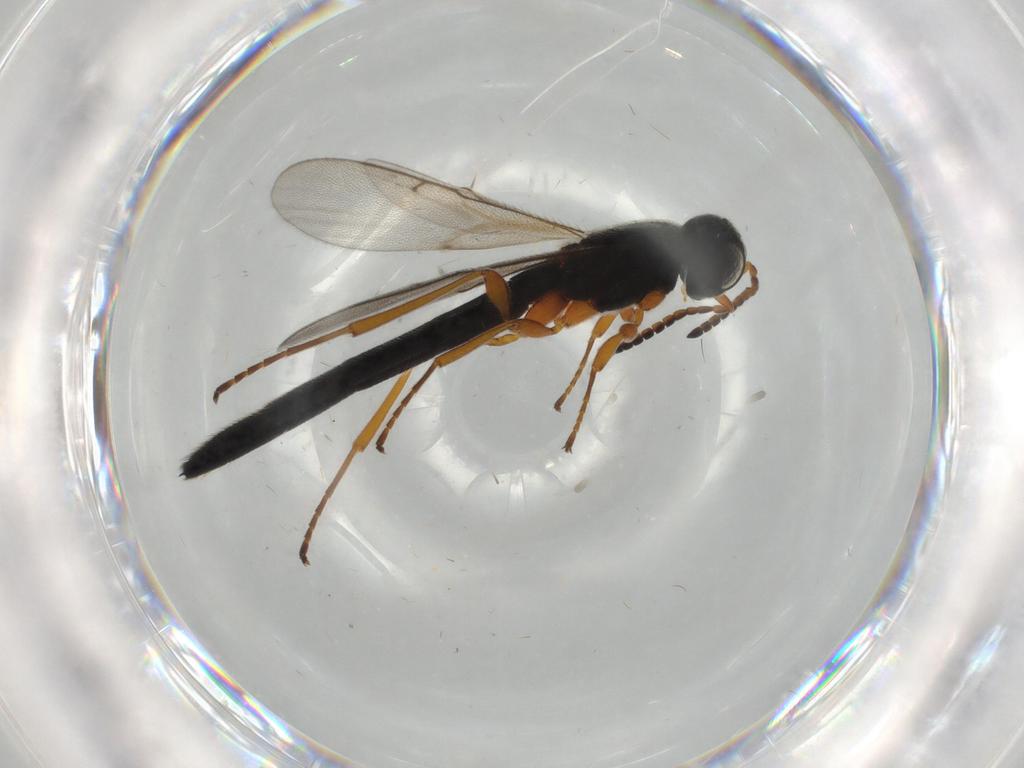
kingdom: Animalia
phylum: Arthropoda
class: Insecta
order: Hymenoptera
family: Scelionidae
